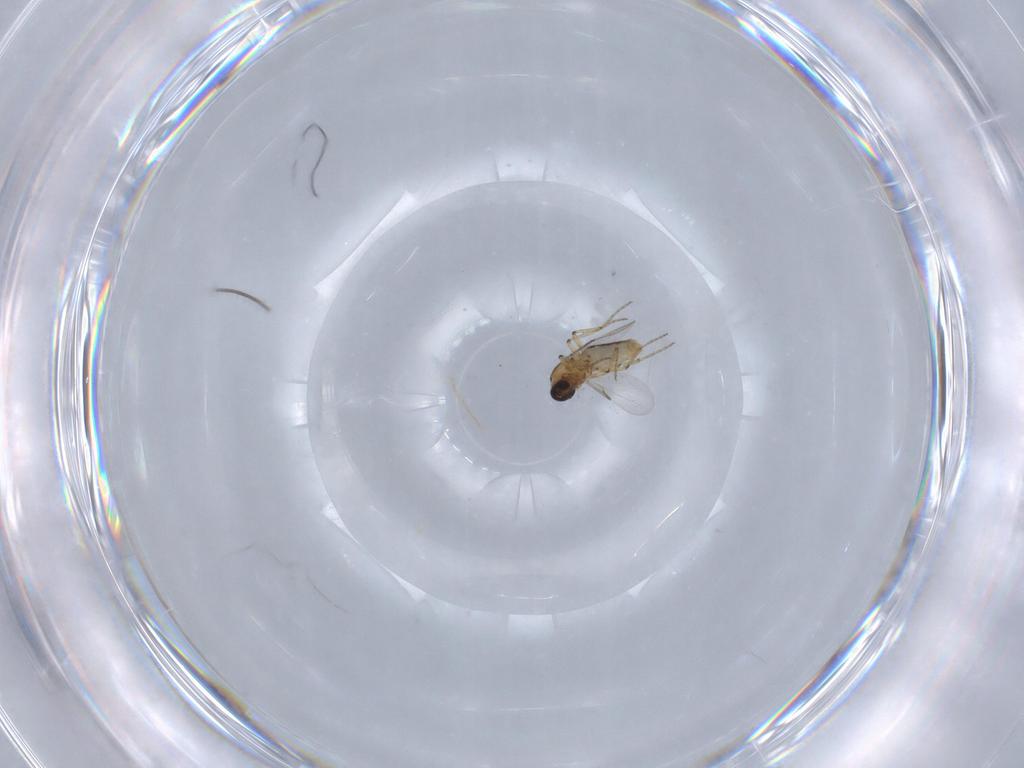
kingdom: Animalia
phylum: Arthropoda
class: Insecta
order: Diptera
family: Ceratopogonidae
